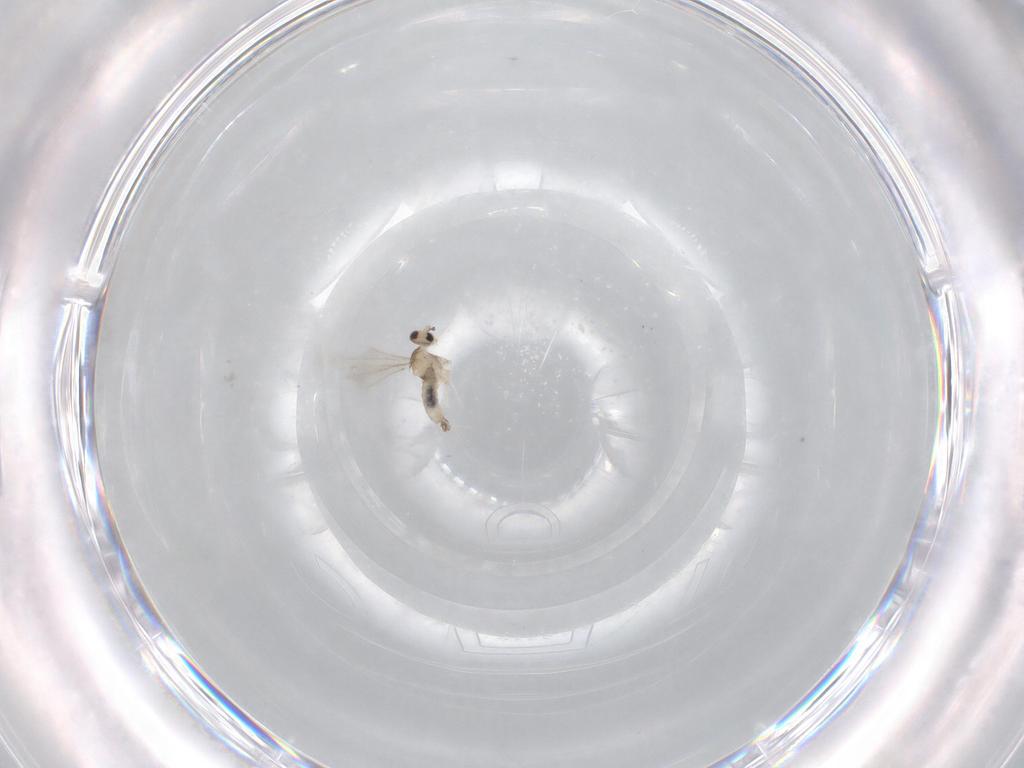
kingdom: Animalia
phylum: Arthropoda
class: Insecta
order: Diptera
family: Cecidomyiidae
